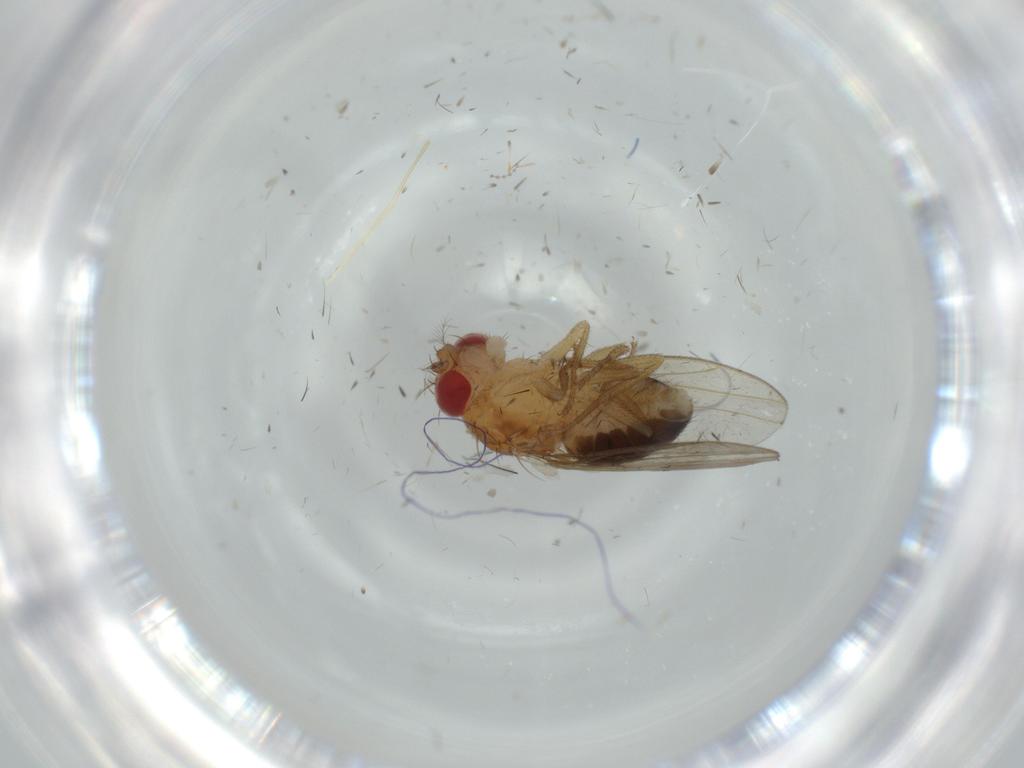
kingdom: Animalia
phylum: Arthropoda
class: Insecta
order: Diptera
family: Drosophilidae
